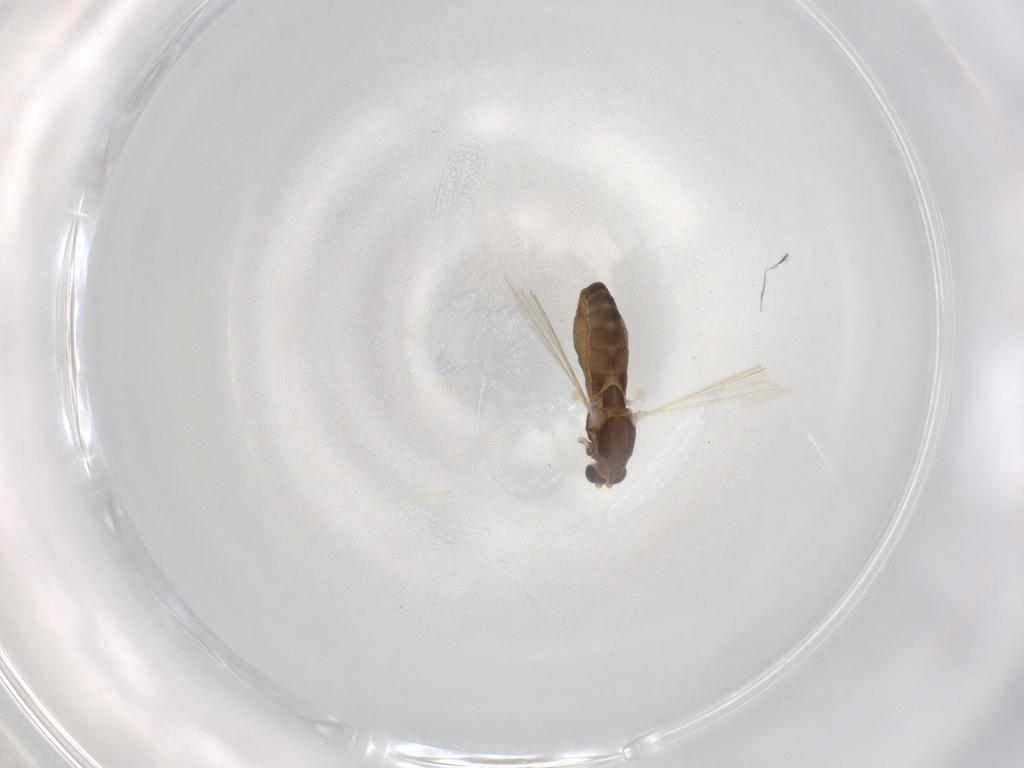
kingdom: Animalia
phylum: Arthropoda
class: Insecta
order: Diptera
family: Chironomidae
